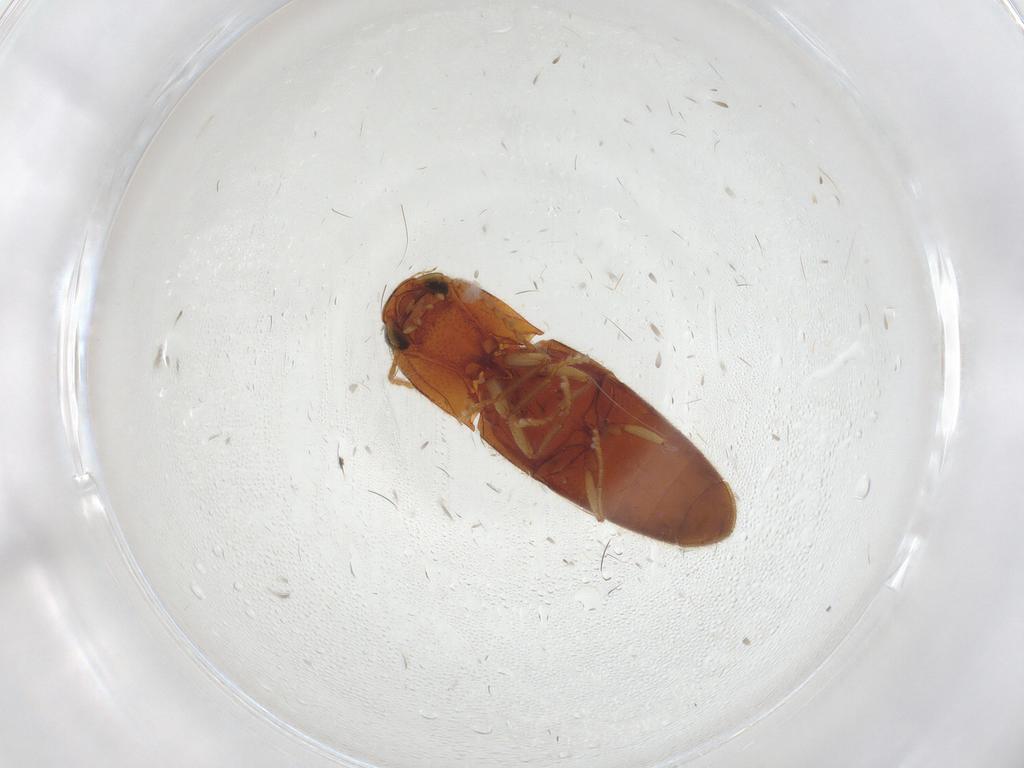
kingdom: Animalia
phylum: Arthropoda
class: Insecta
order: Coleoptera
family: Elateridae
